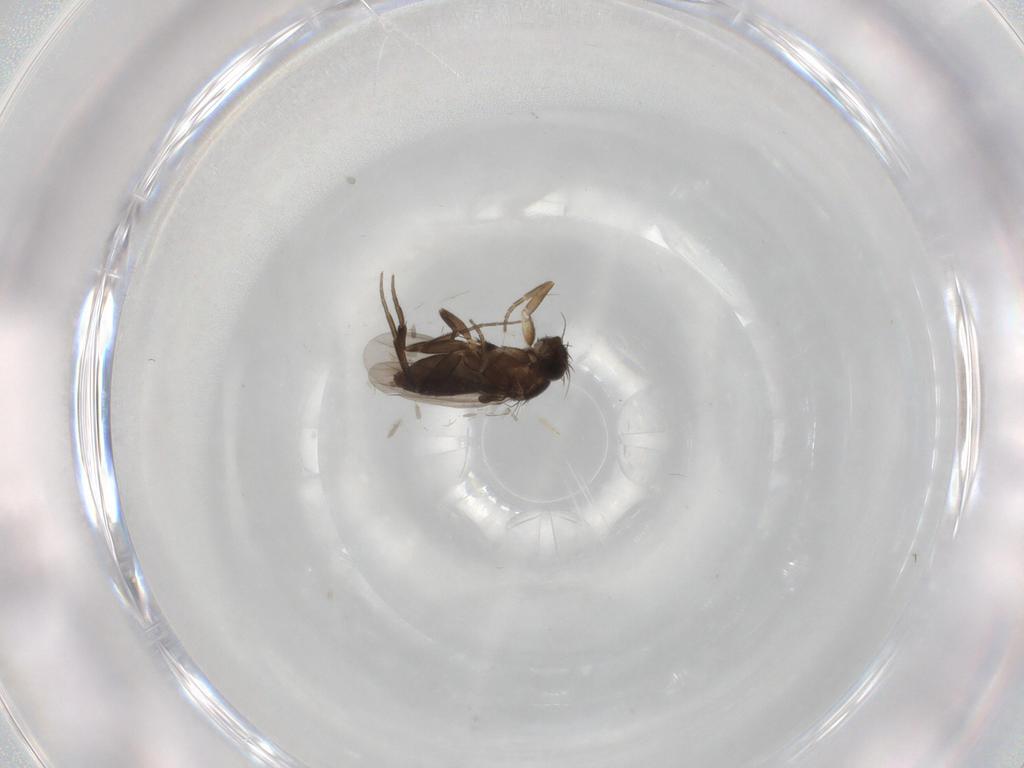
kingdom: Animalia
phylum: Arthropoda
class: Insecta
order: Diptera
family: Phoridae
